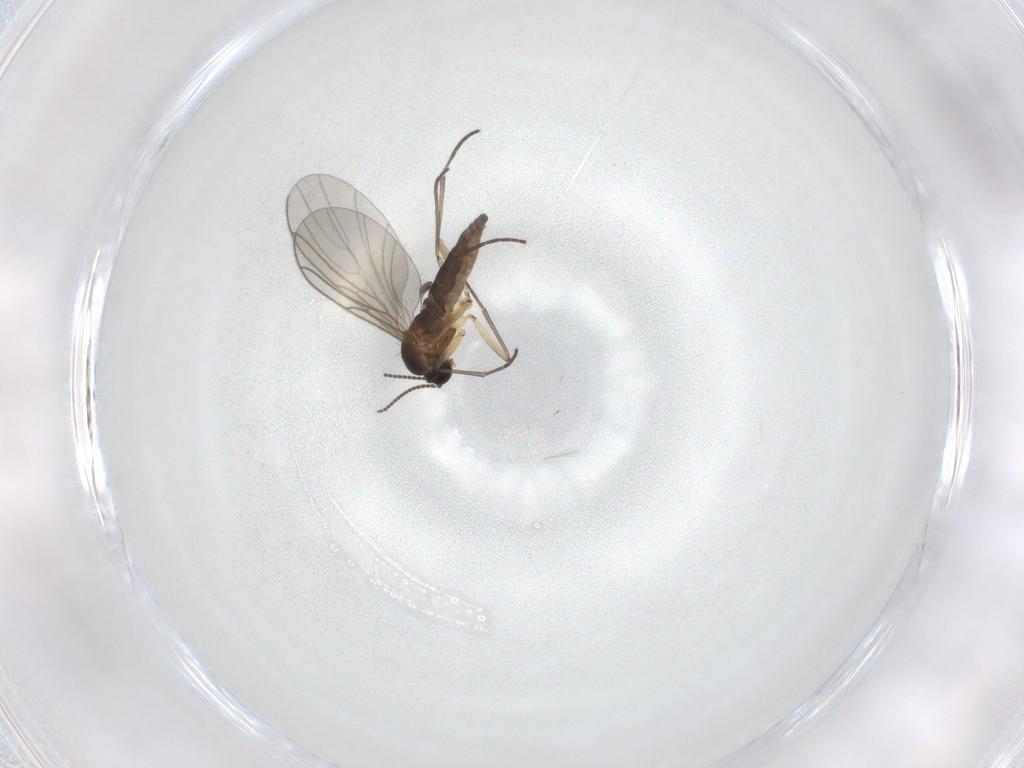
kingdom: Animalia
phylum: Arthropoda
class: Insecta
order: Diptera
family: Sciaridae
